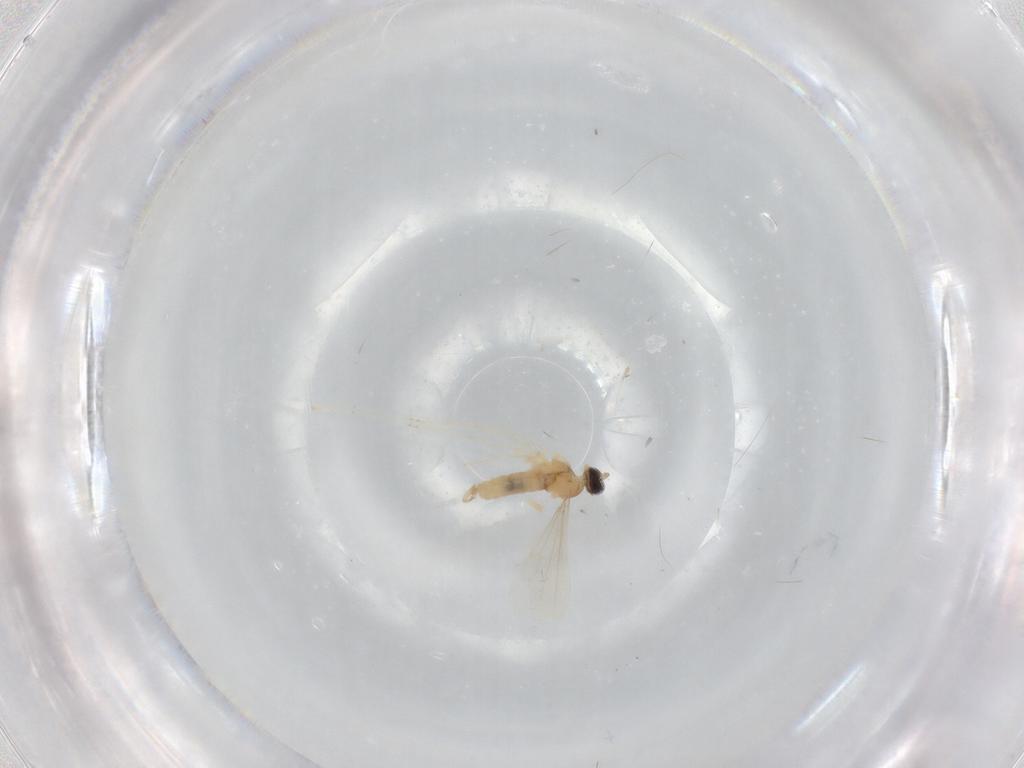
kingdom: Animalia
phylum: Arthropoda
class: Insecta
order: Diptera
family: Cecidomyiidae
